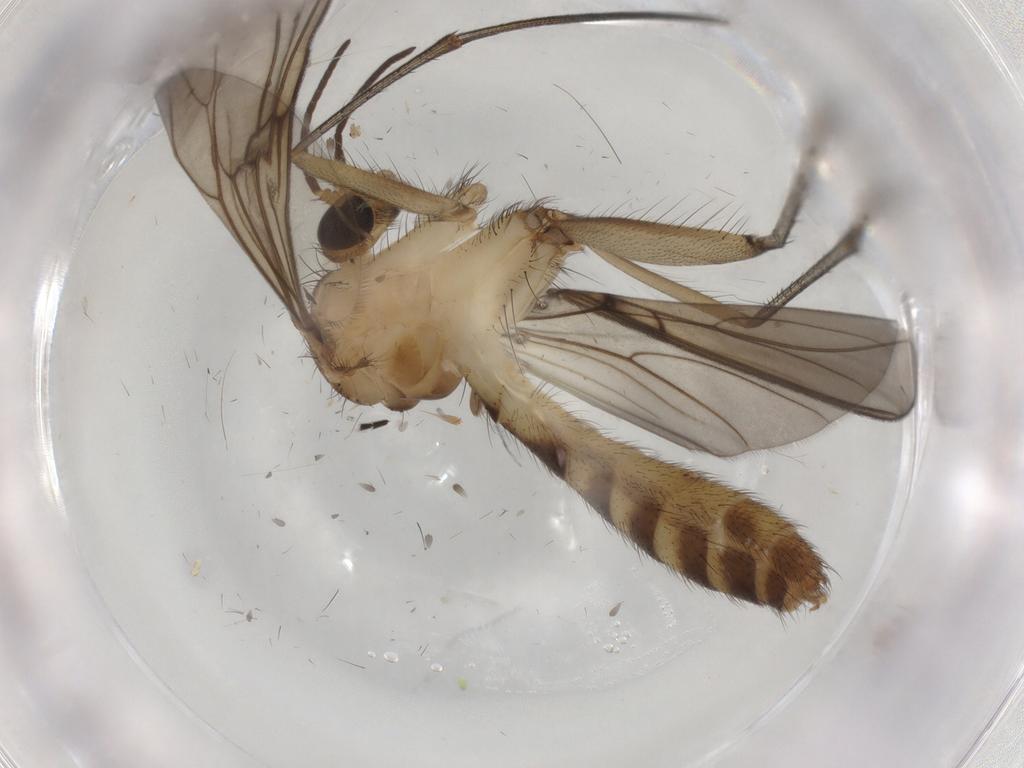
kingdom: Animalia
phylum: Arthropoda
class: Insecta
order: Diptera
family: Mycetophilidae
